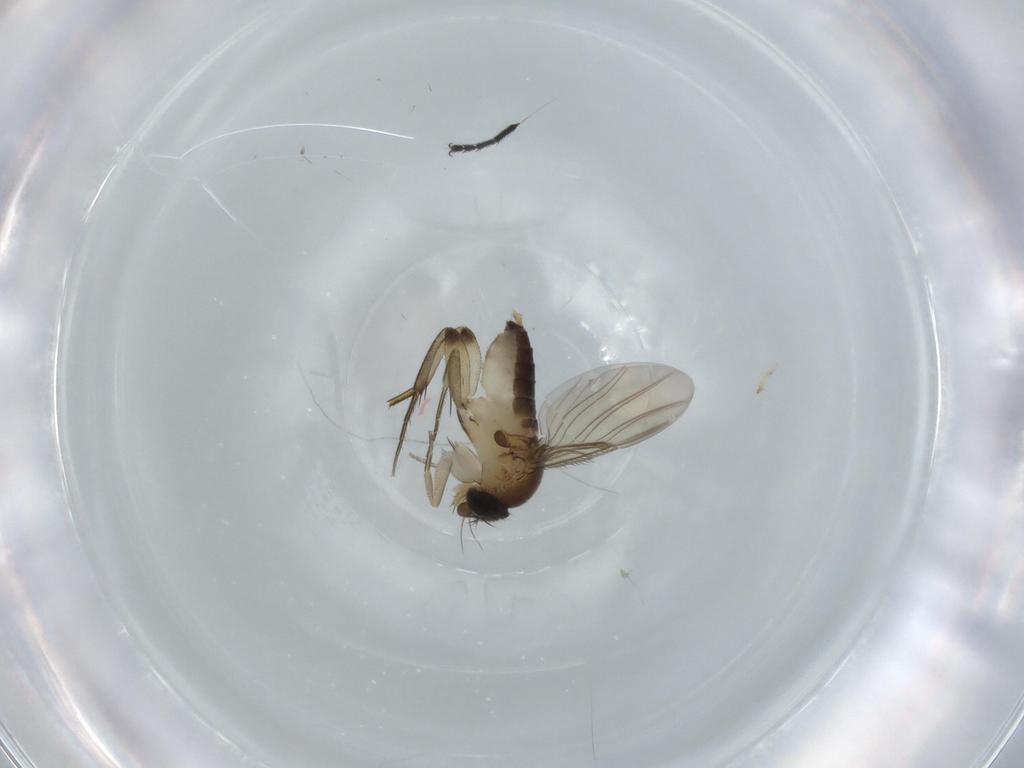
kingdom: Animalia
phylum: Arthropoda
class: Insecta
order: Diptera
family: Phoridae
